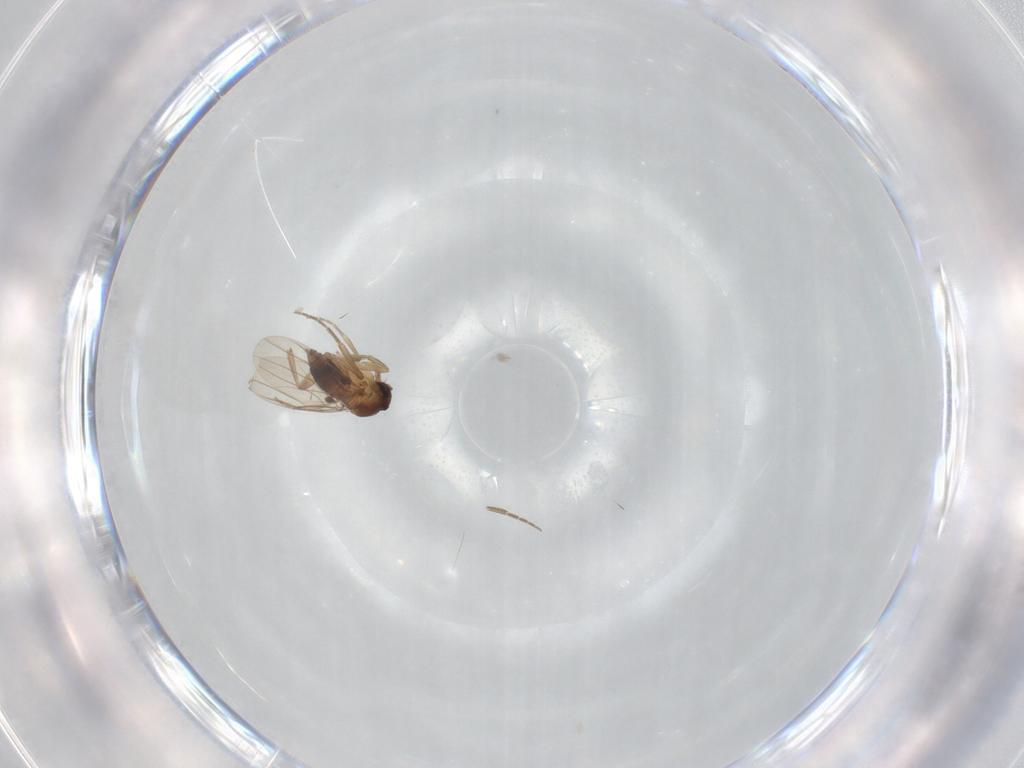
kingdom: Animalia
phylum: Arthropoda
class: Insecta
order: Diptera
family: Phoridae
